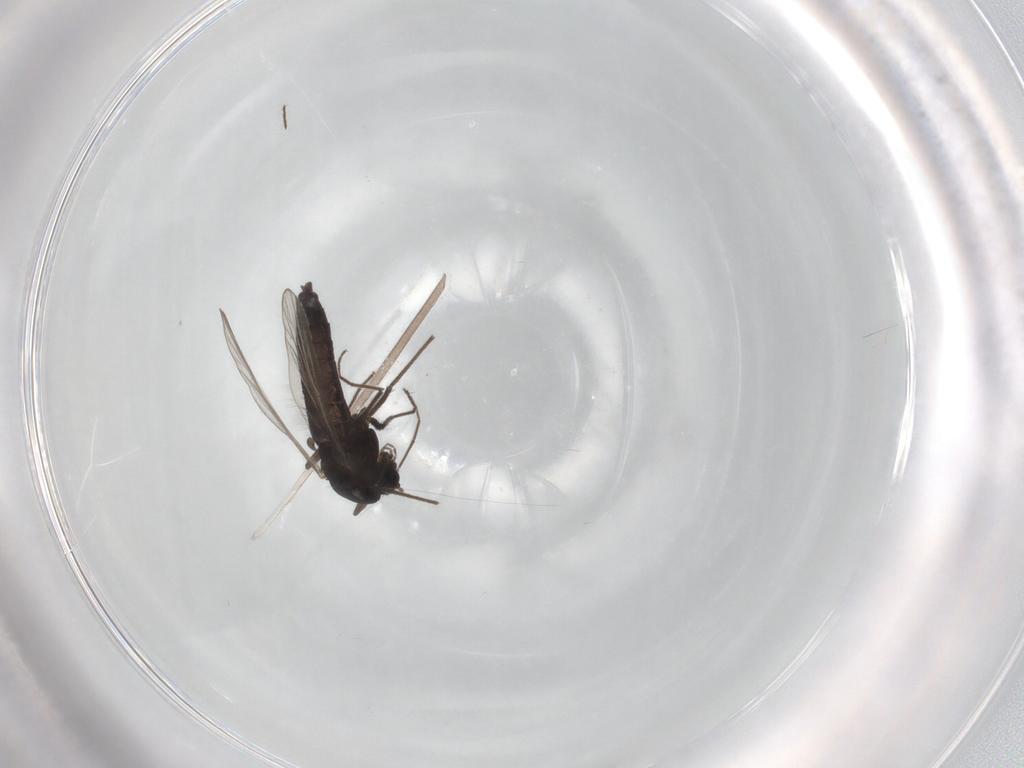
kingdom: Animalia
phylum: Arthropoda
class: Insecta
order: Diptera
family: Chironomidae
